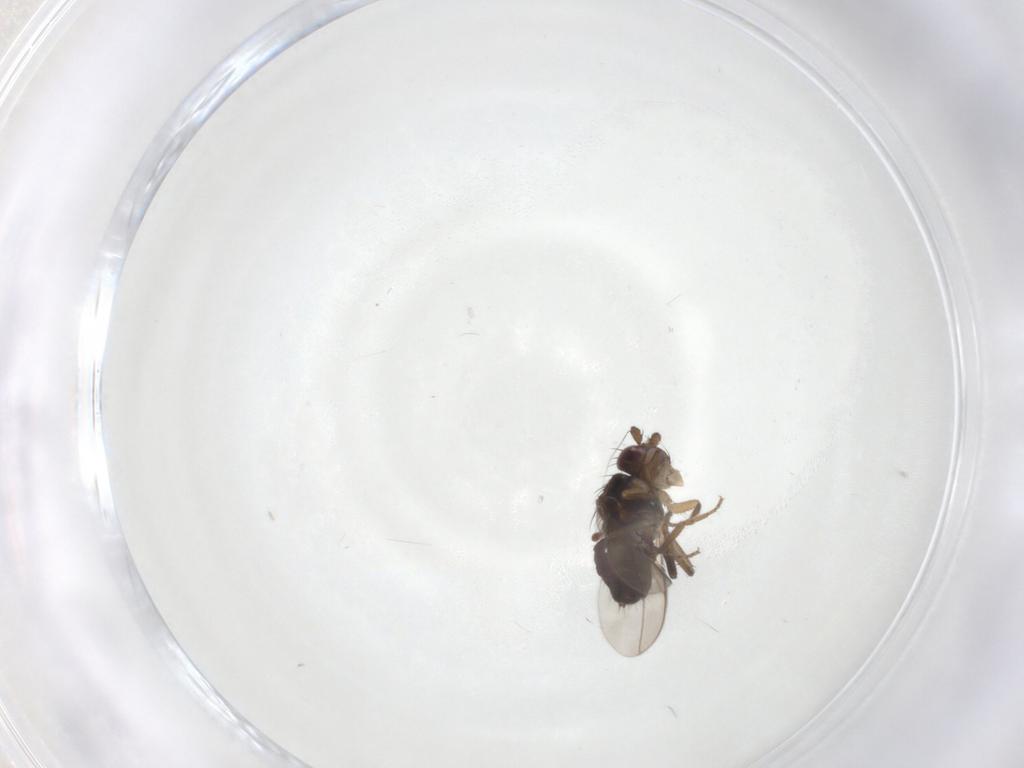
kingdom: Animalia
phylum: Arthropoda
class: Insecta
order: Diptera
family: Sphaeroceridae
